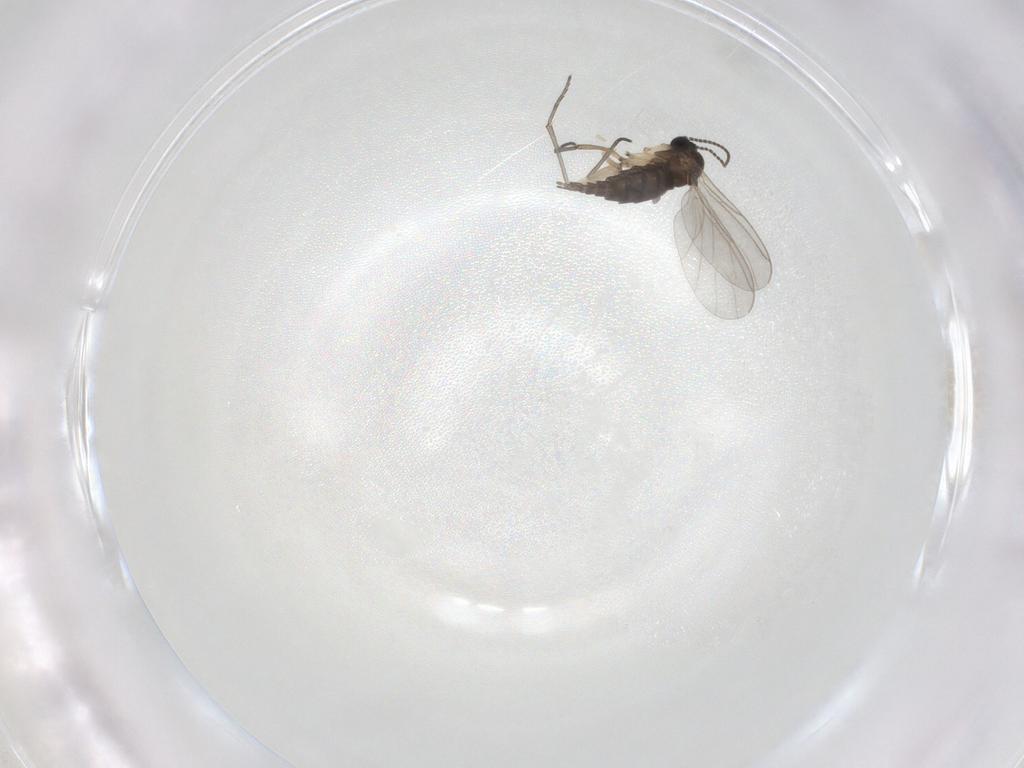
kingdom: Animalia
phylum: Arthropoda
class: Insecta
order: Diptera
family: Sciaridae
